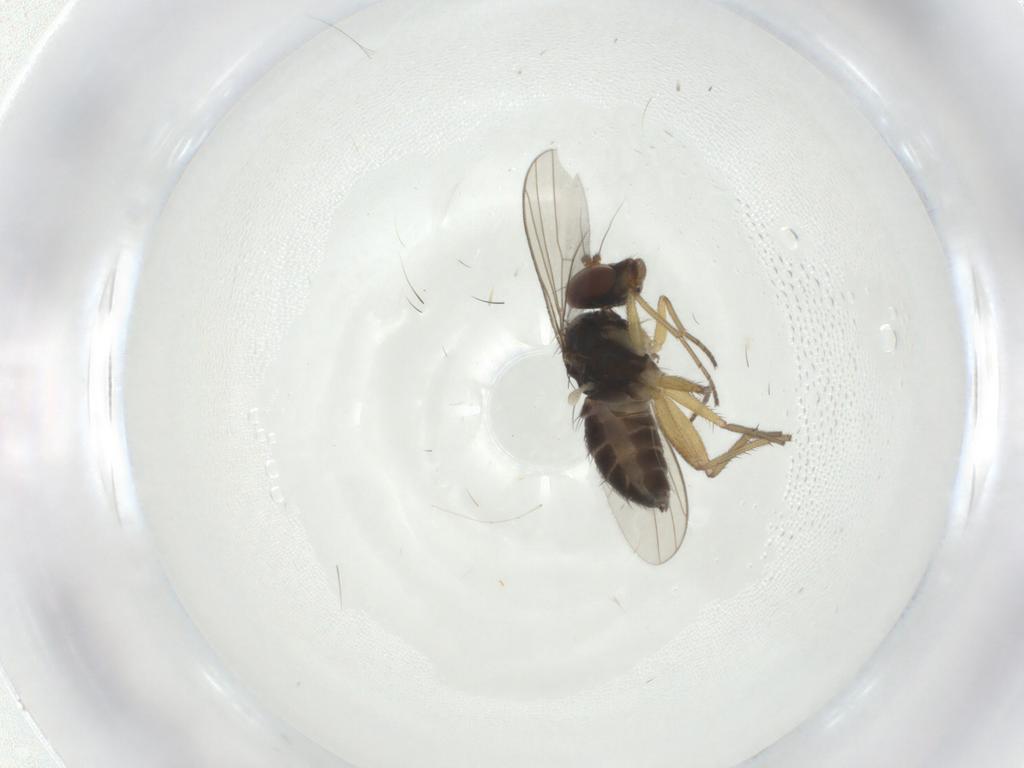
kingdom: Animalia
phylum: Arthropoda
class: Insecta
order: Diptera
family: Dolichopodidae
